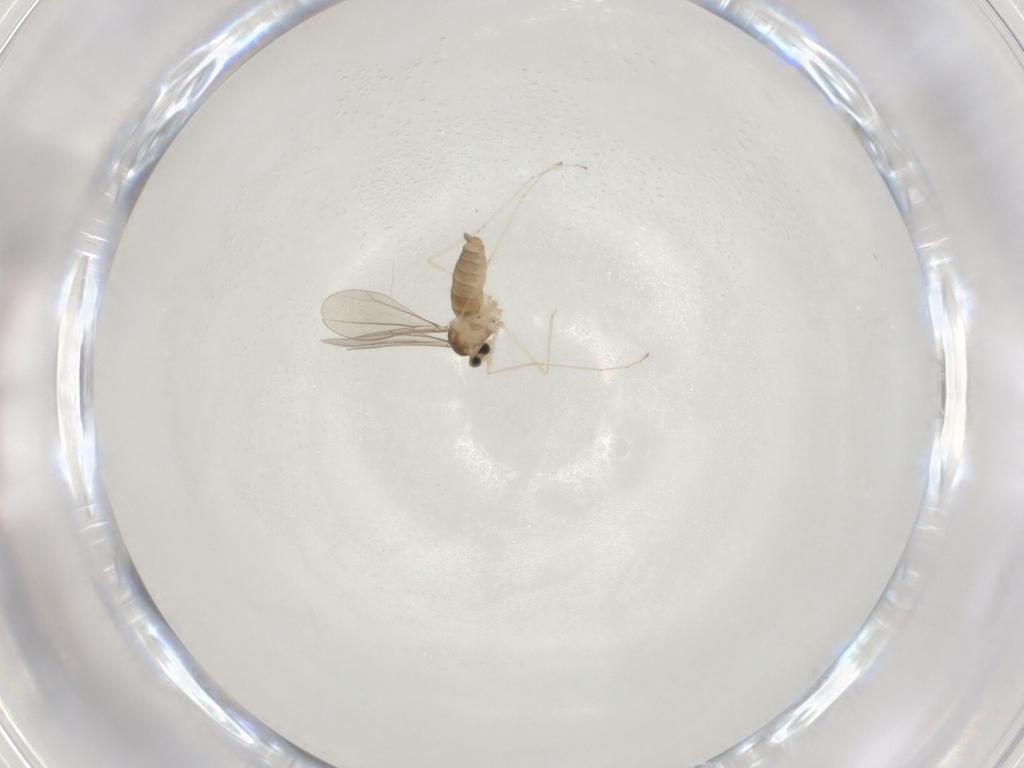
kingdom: Animalia
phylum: Arthropoda
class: Insecta
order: Diptera
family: Cecidomyiidae
